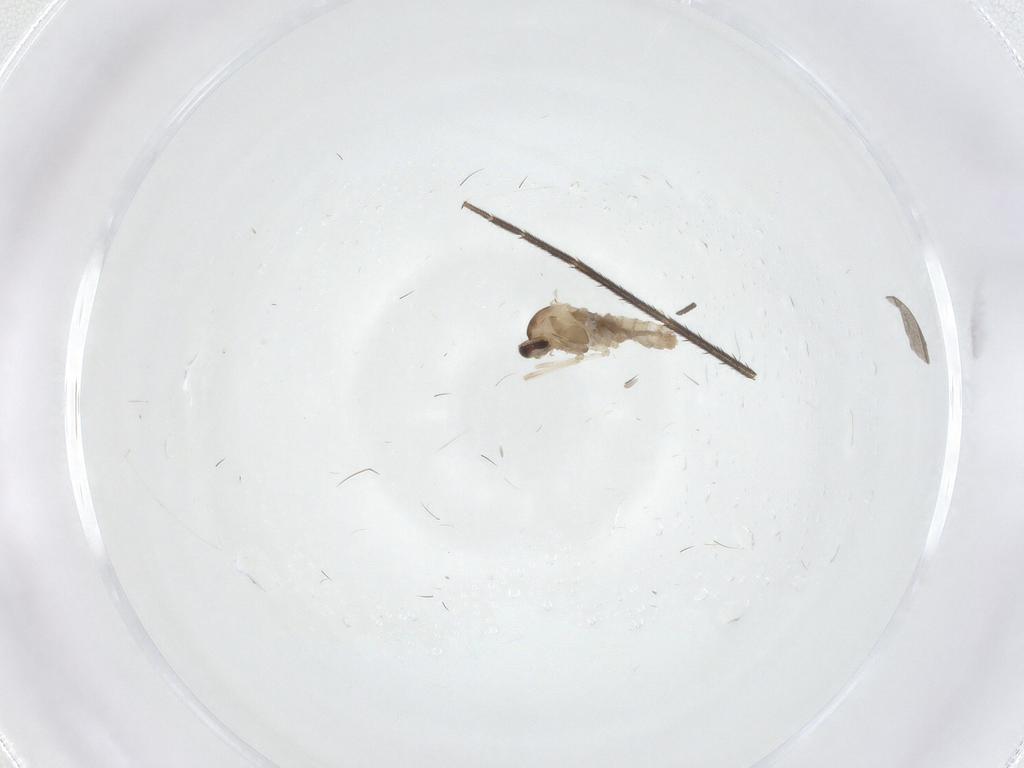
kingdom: Animalia
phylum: Arthropoda
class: Insecta
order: Diptera
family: Mycetophilidae
